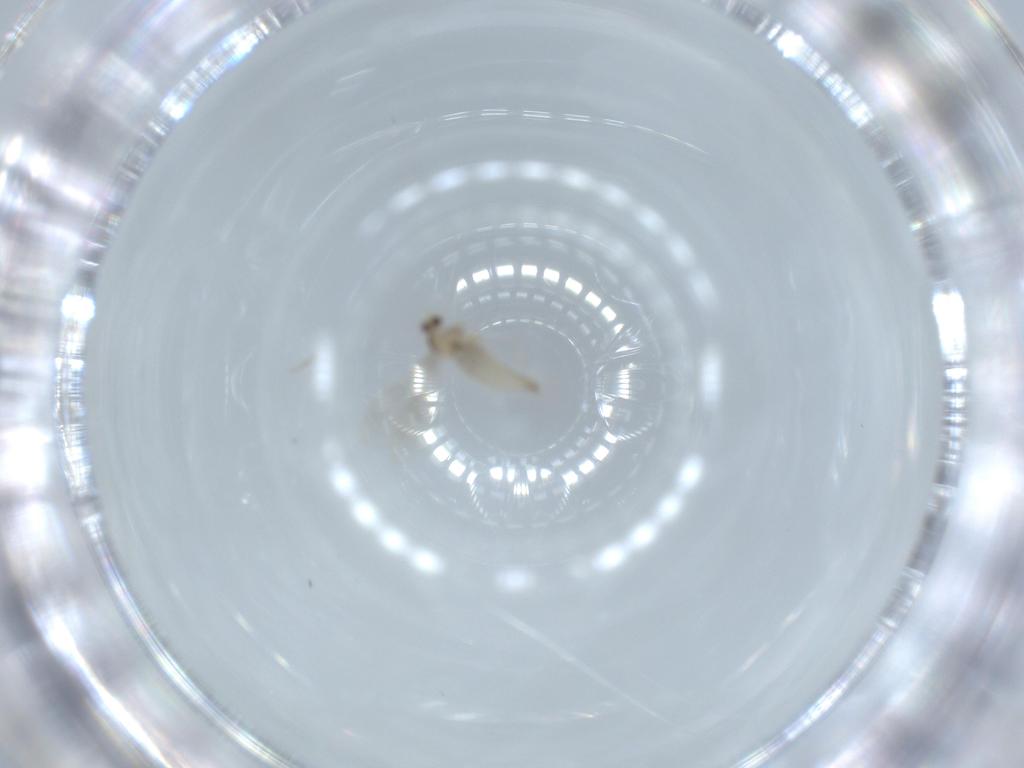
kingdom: Animalia
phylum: Arthropoda
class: Insecta
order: Diptera
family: Cecidomyiidae
